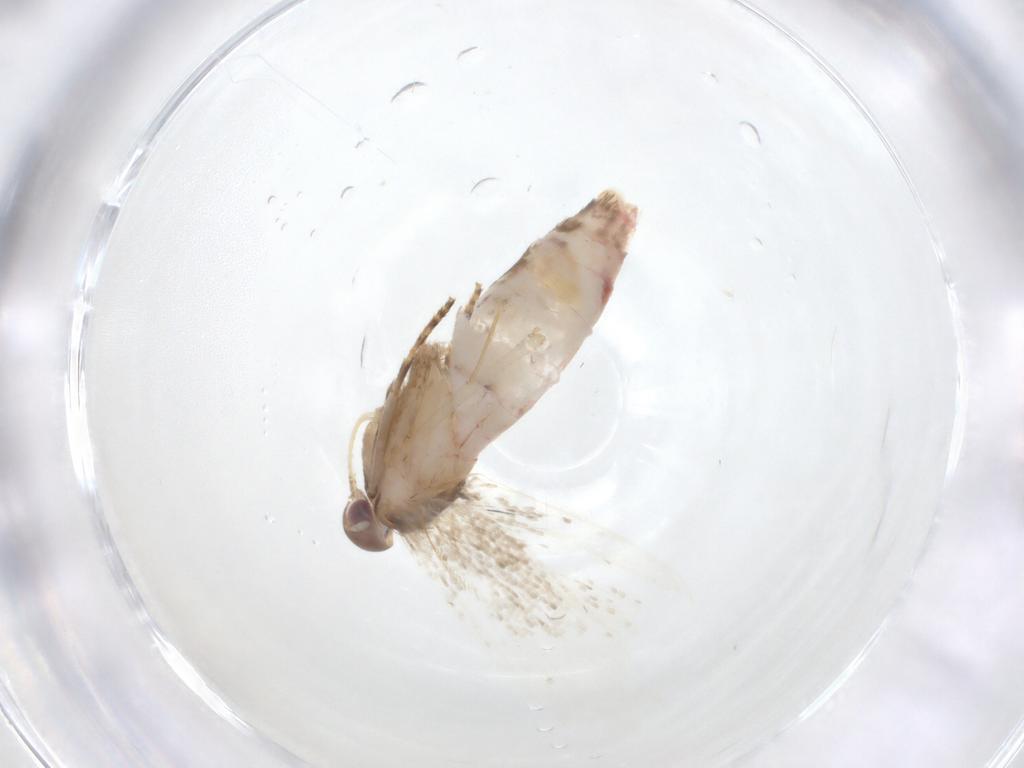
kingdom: Animalia
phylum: Arthropoda
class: Insecta
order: Lepidoptera
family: Gelechiidae
